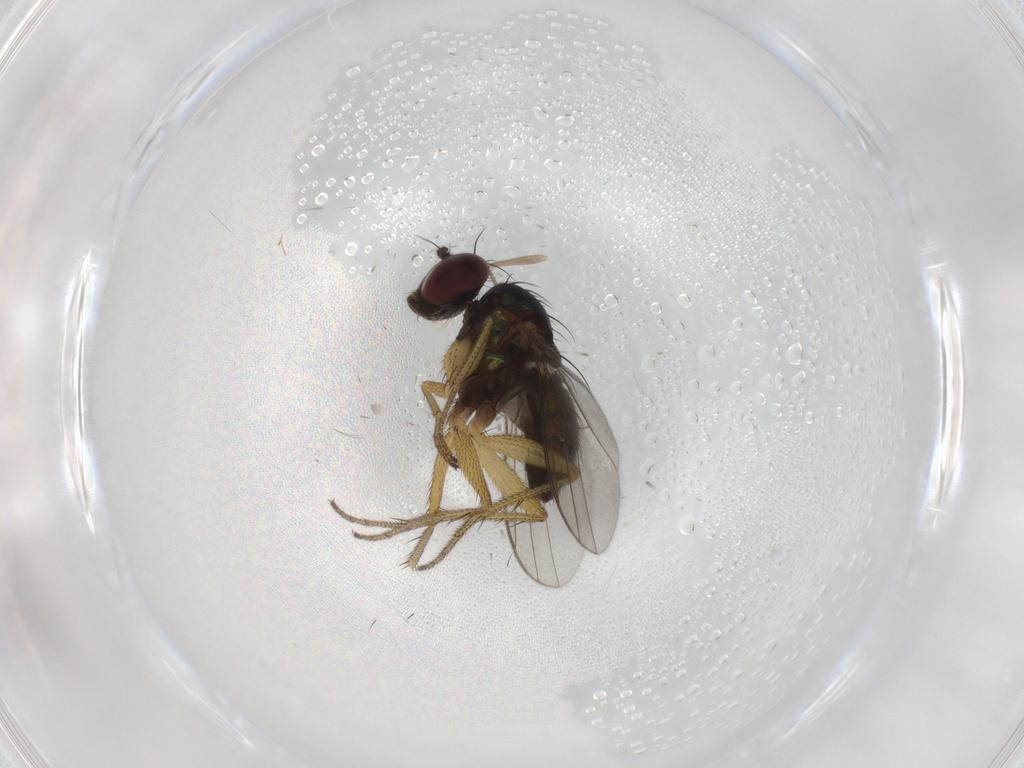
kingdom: Animalia
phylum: Arthropoda
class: Insecta
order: Diptera
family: Chironomidae
